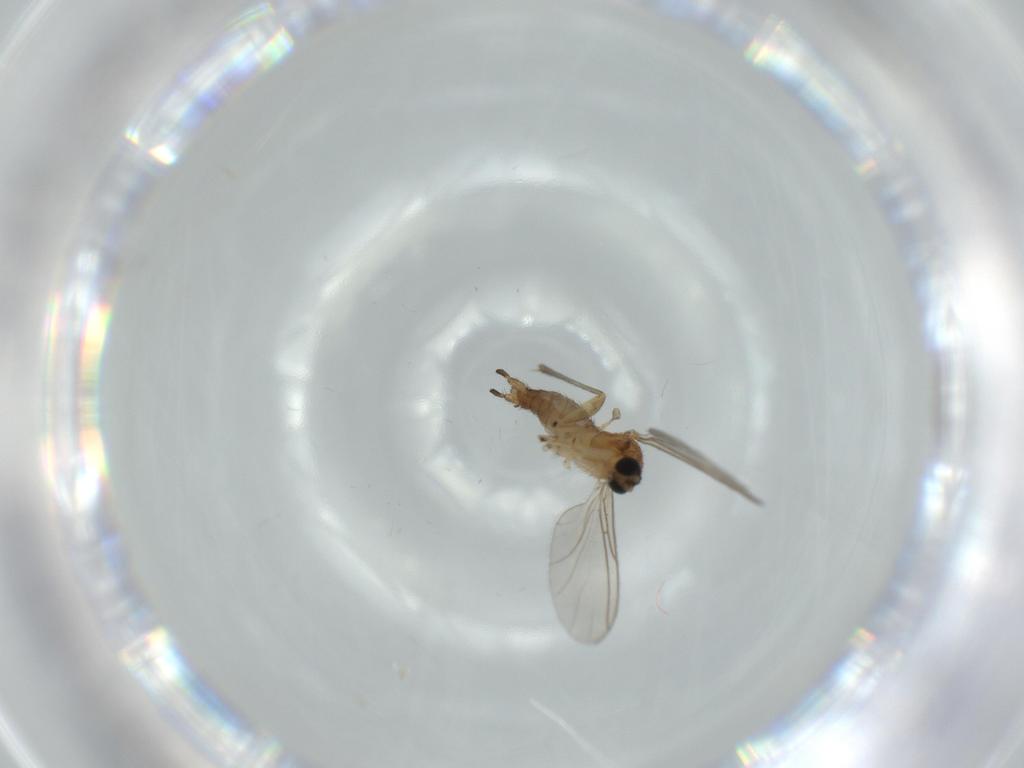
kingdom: Animalia
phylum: Arthropoda
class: Insecta
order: Diptera
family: Sciaridae
